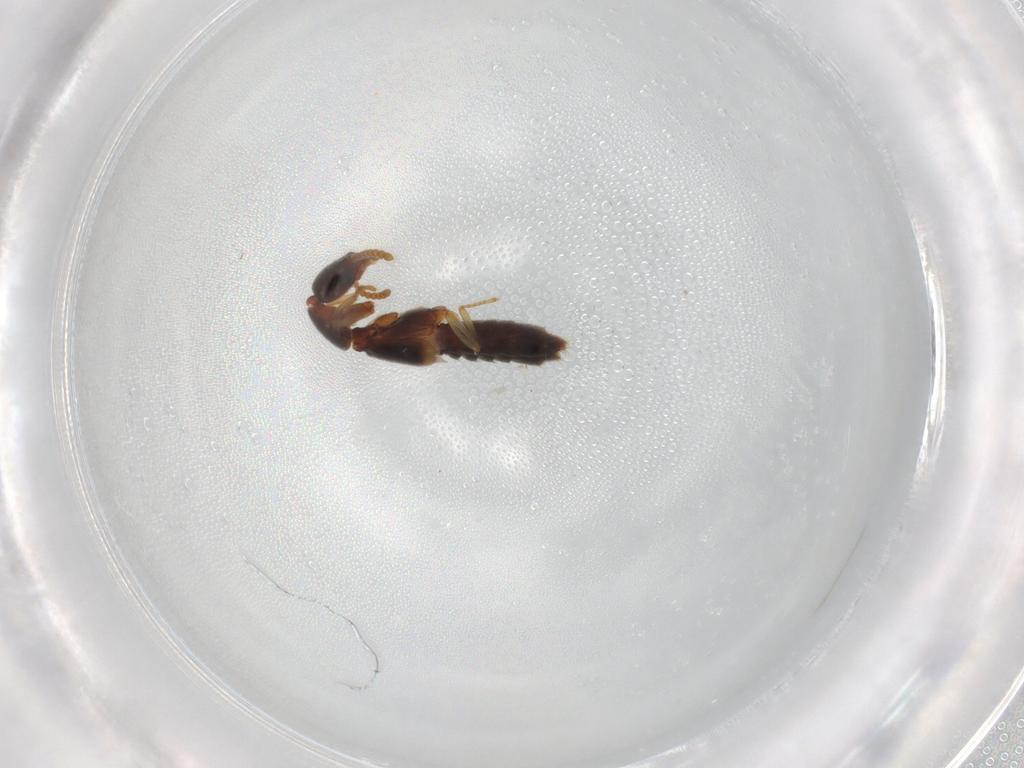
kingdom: Animalia
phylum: Arthropoda
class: Insecta
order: Coleoptera
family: Staphylinidae
